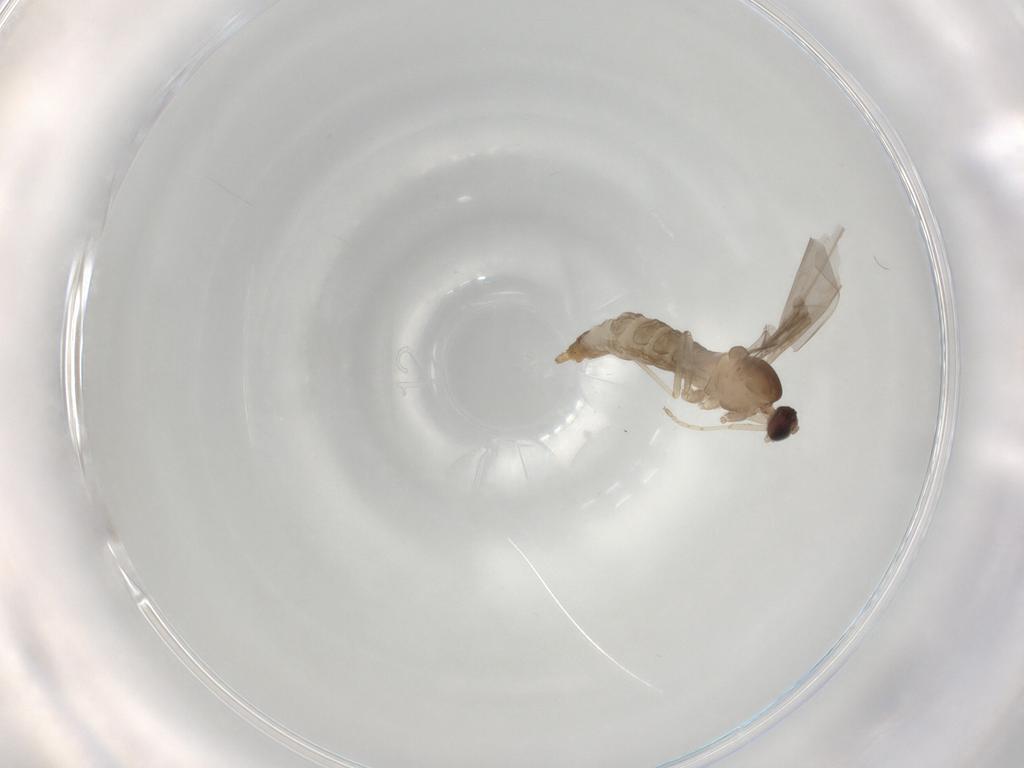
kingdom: Animalia
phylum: Arthropoda
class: Insecta
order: Diptera
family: Cecidomyiidae
